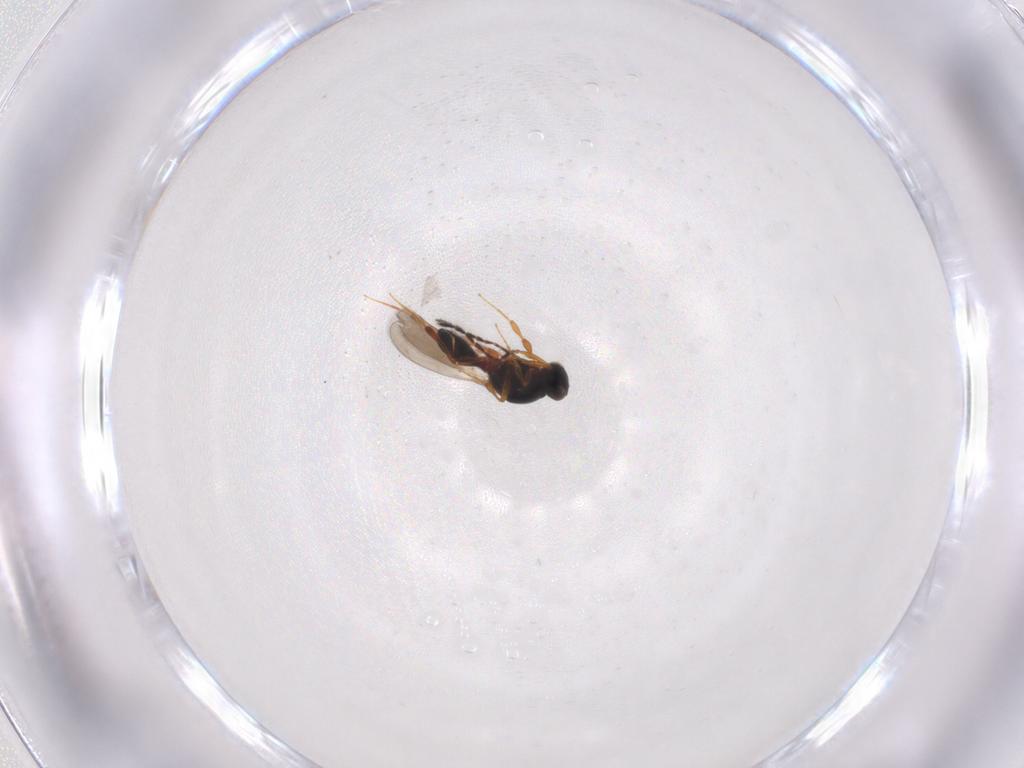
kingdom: Animalia
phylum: Arthropoda
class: Insecta
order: Hymenoptera
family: Platygastridae
